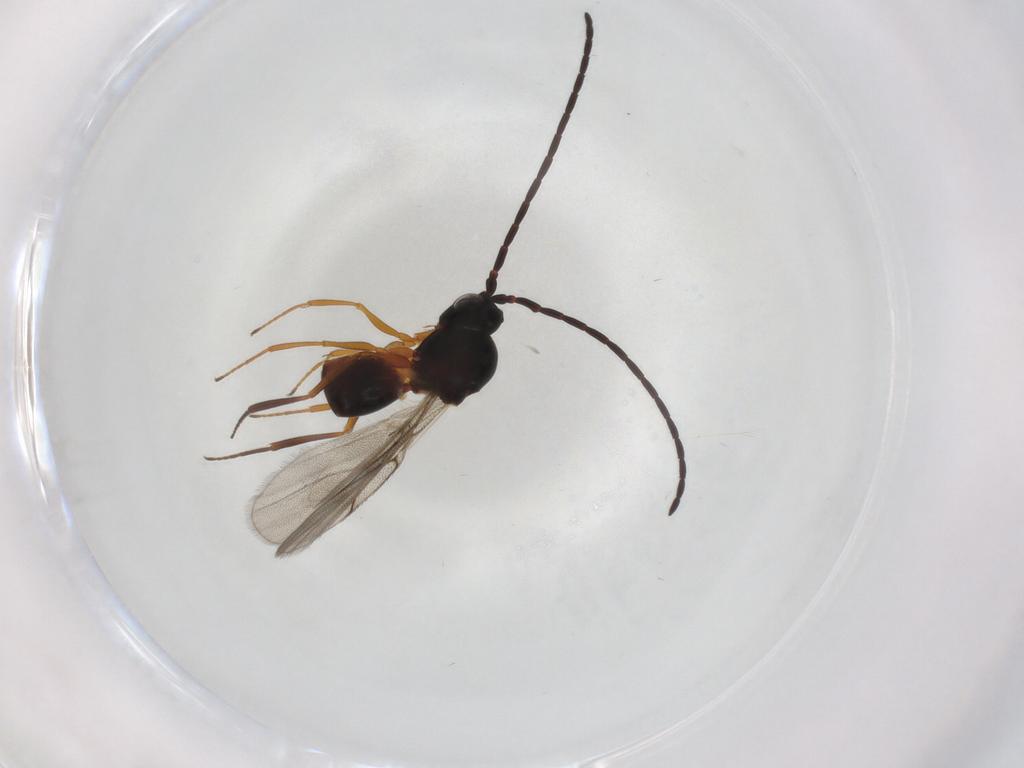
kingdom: Animalia
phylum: Arthropoda
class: Insecta
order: Hymenoptera
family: Figitidae
